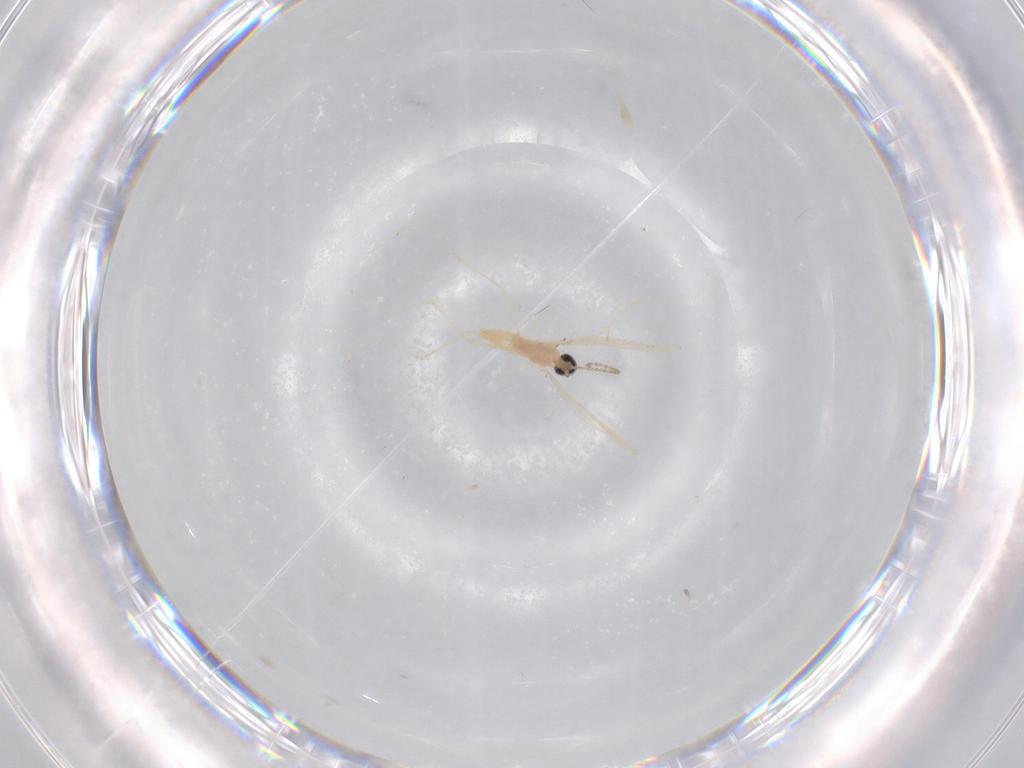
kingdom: Animalia
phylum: Arthropoda
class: Insecta
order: Diptera
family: Cecidomyiidae
